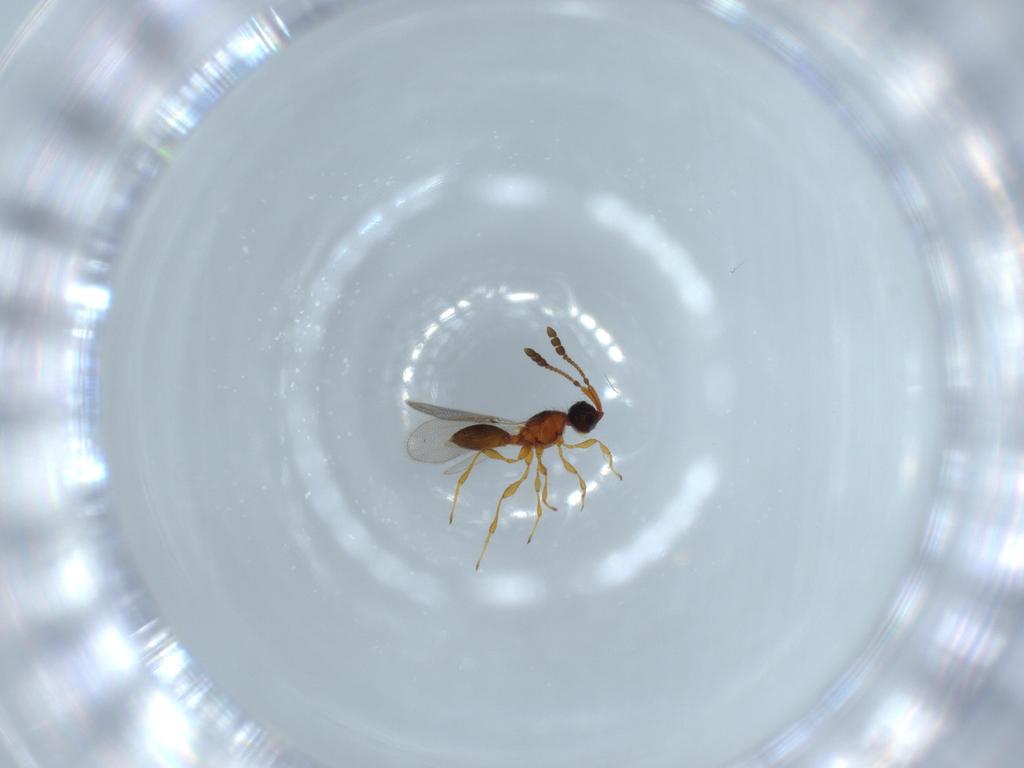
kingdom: Animalia
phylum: Arthropoda
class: Insecta
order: Hymenoptera
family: Diapriidae
